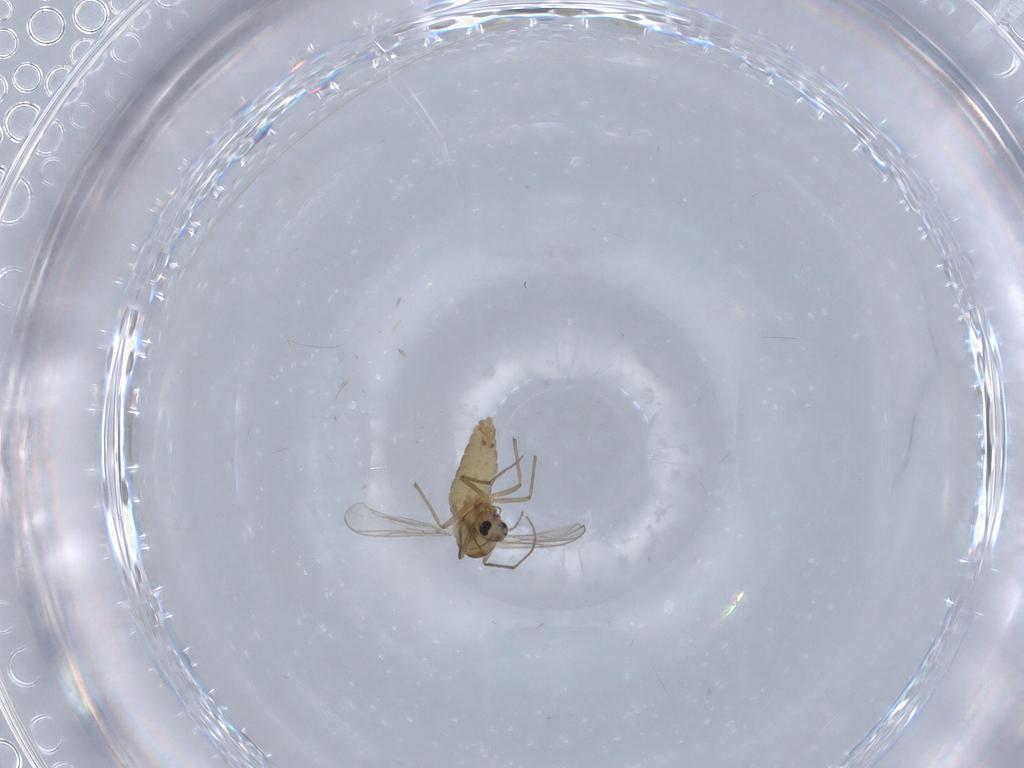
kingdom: Animalia
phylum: Arthropoda
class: Insecta
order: Diptera
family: Chironomidae
